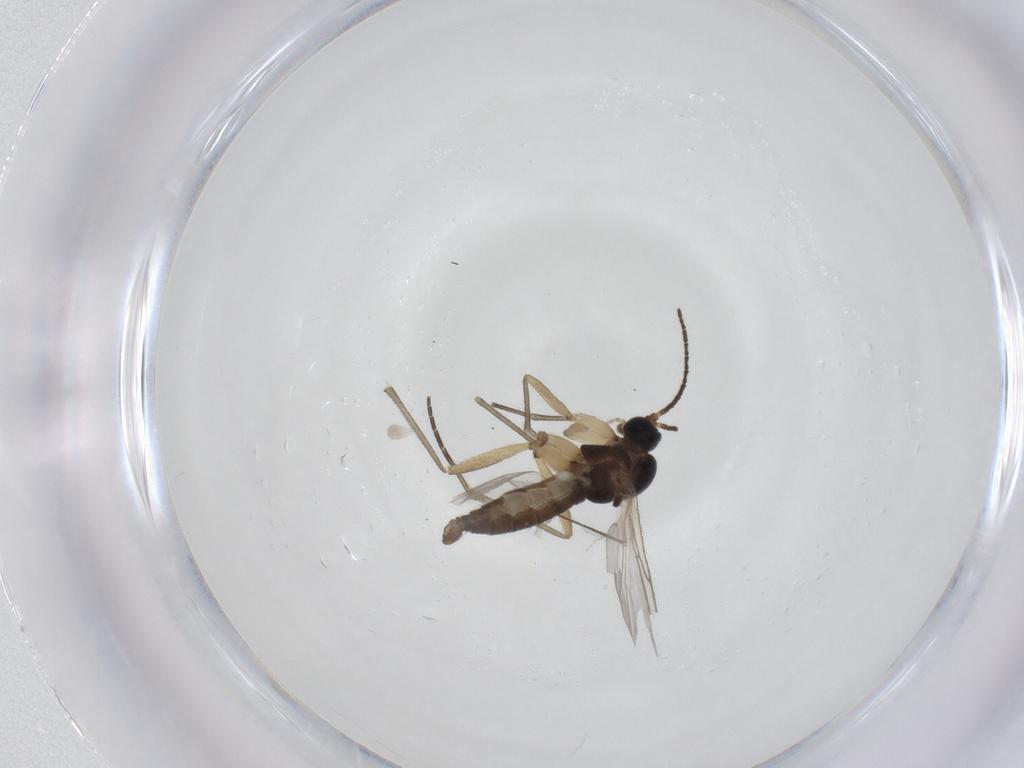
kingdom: Animalia
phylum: Arthropoda
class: Insecta
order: Diptera
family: Sciaridae
